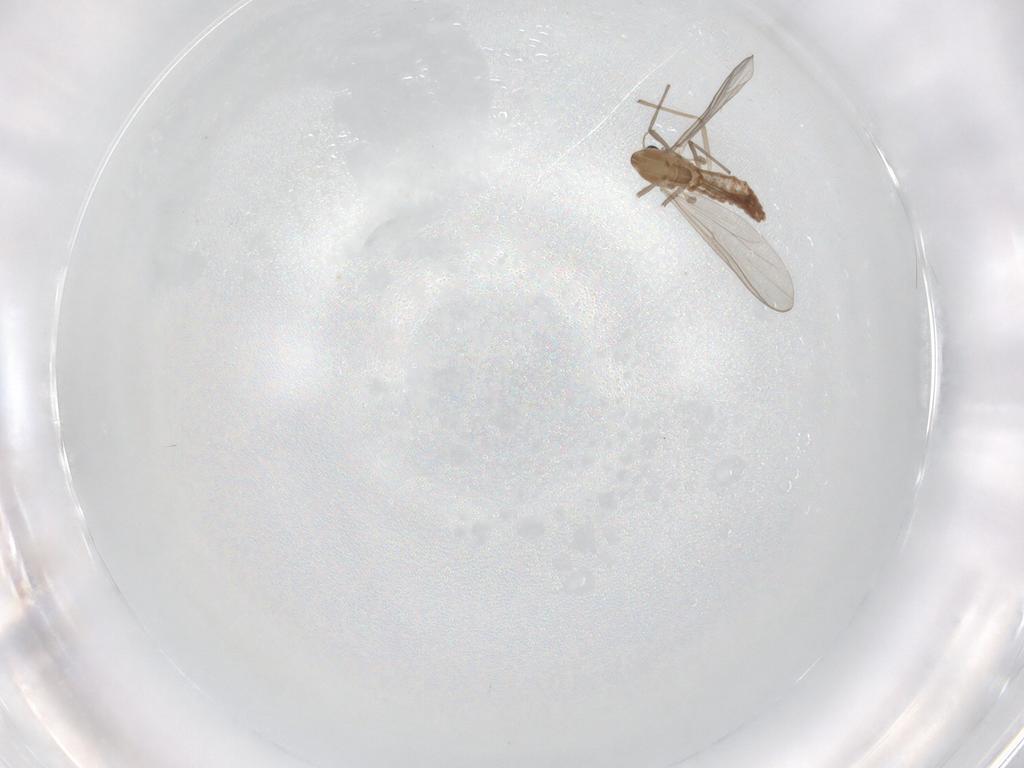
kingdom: Animalia
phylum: Arthropoda
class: Insecta
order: Diptera
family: Chironomidae
